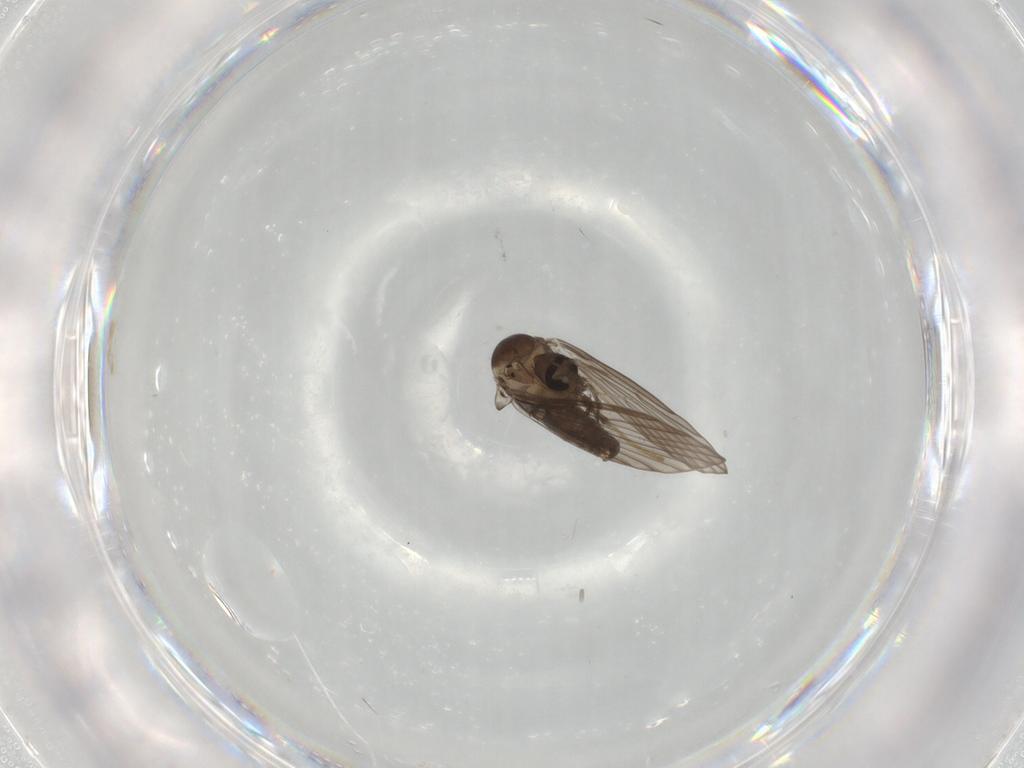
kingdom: Animalia
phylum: Arthropoda
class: Insecta
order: Diptera
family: Psychodidae
